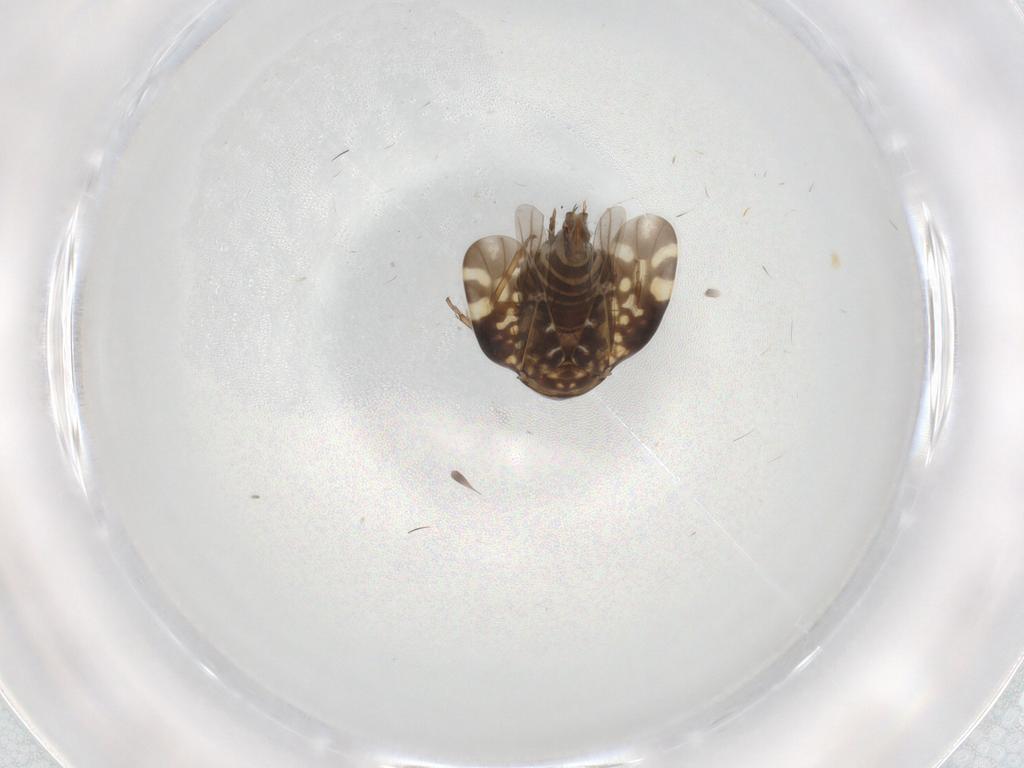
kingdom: Animalia
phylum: Arthropoda
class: Insecta
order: Hemiptera
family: Cicadellidae
